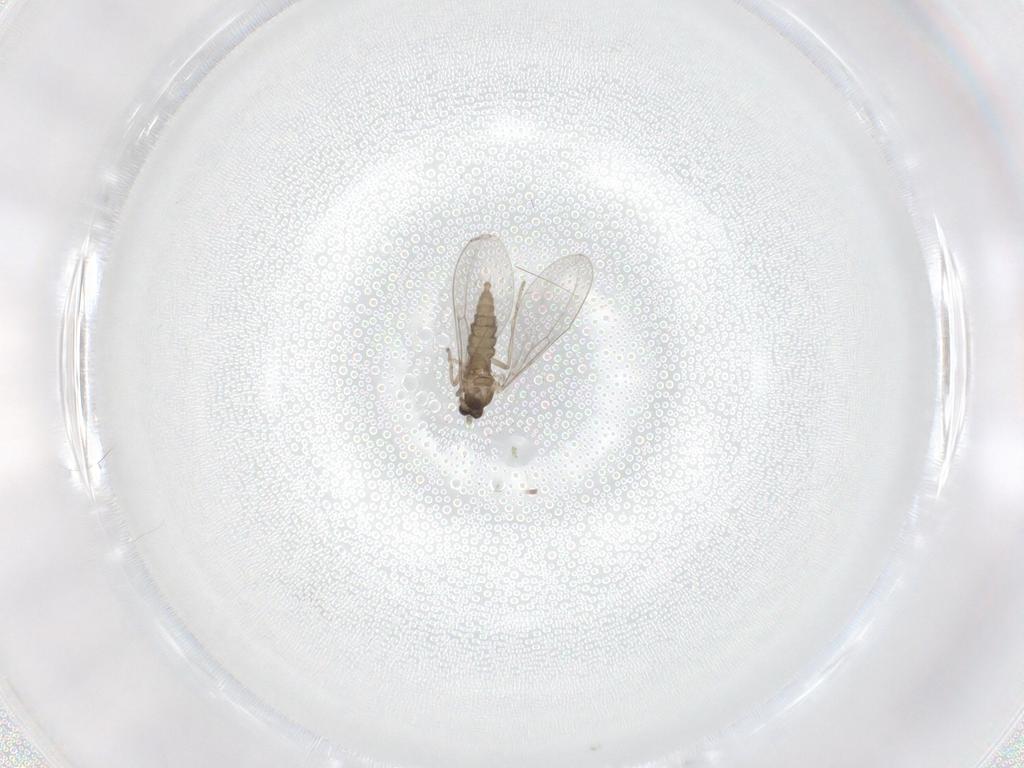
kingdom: Animalia
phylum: Arthropoda
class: Insecta
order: Diptera
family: Cecidomyiidae
